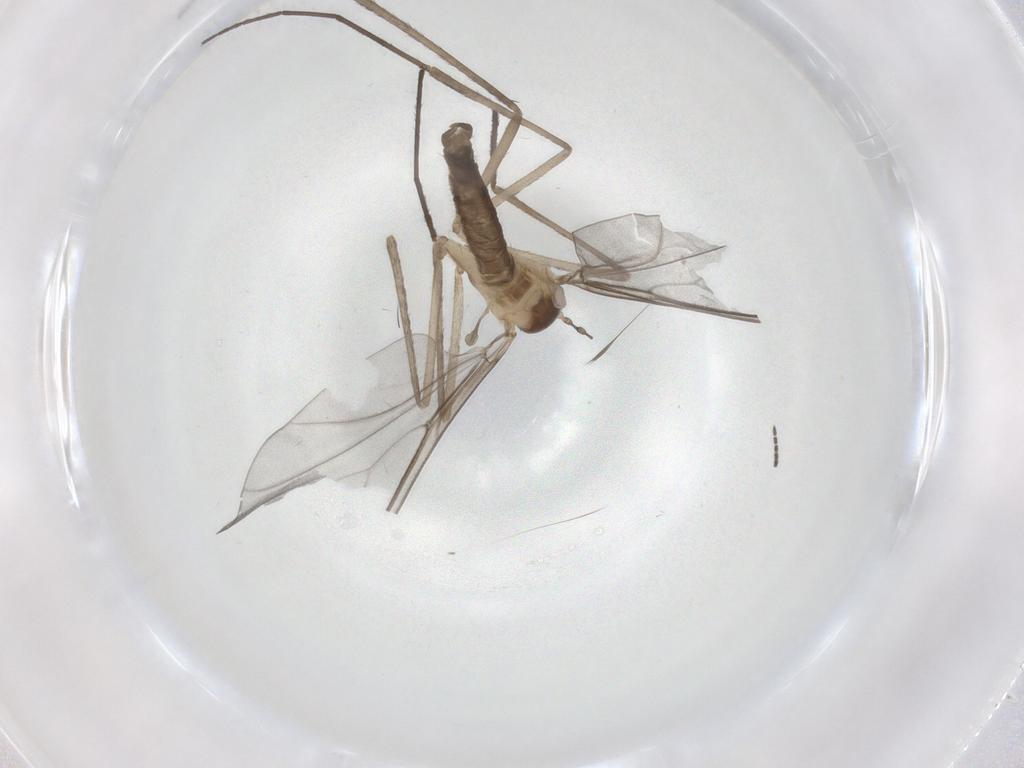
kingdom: Animalia
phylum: Arthropoda
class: Insecta
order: Diptera
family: Cecidomyiidae
